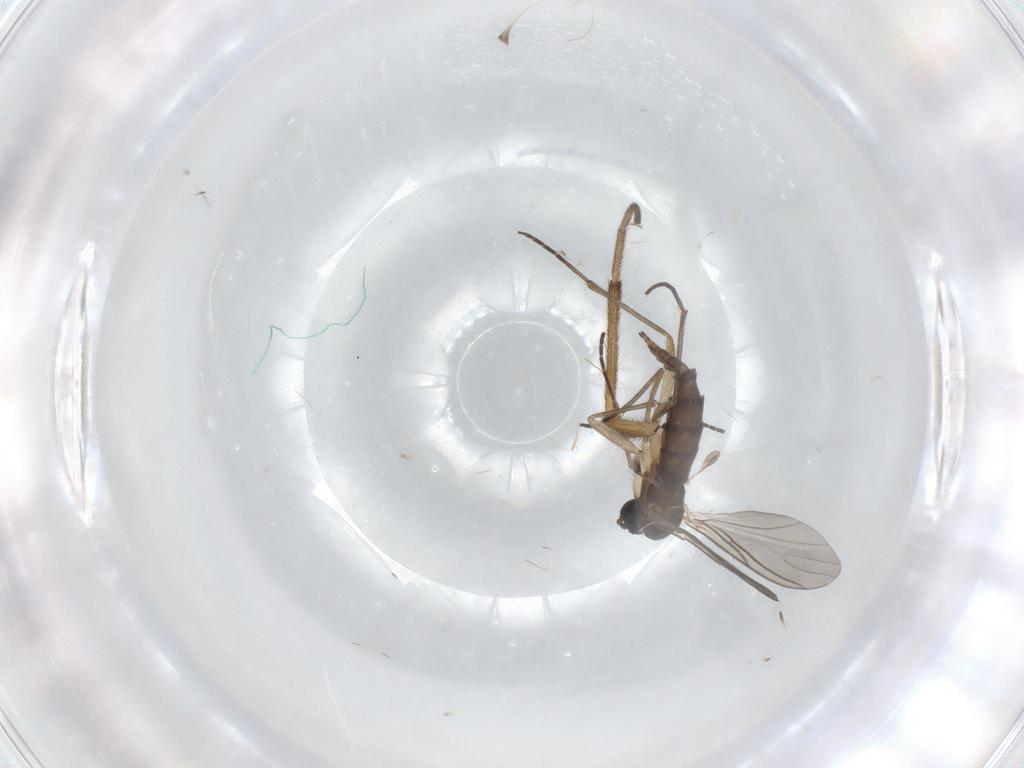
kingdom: Animalia
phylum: Arthropoda
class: Insecta
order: Diptera
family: Sciaridae
